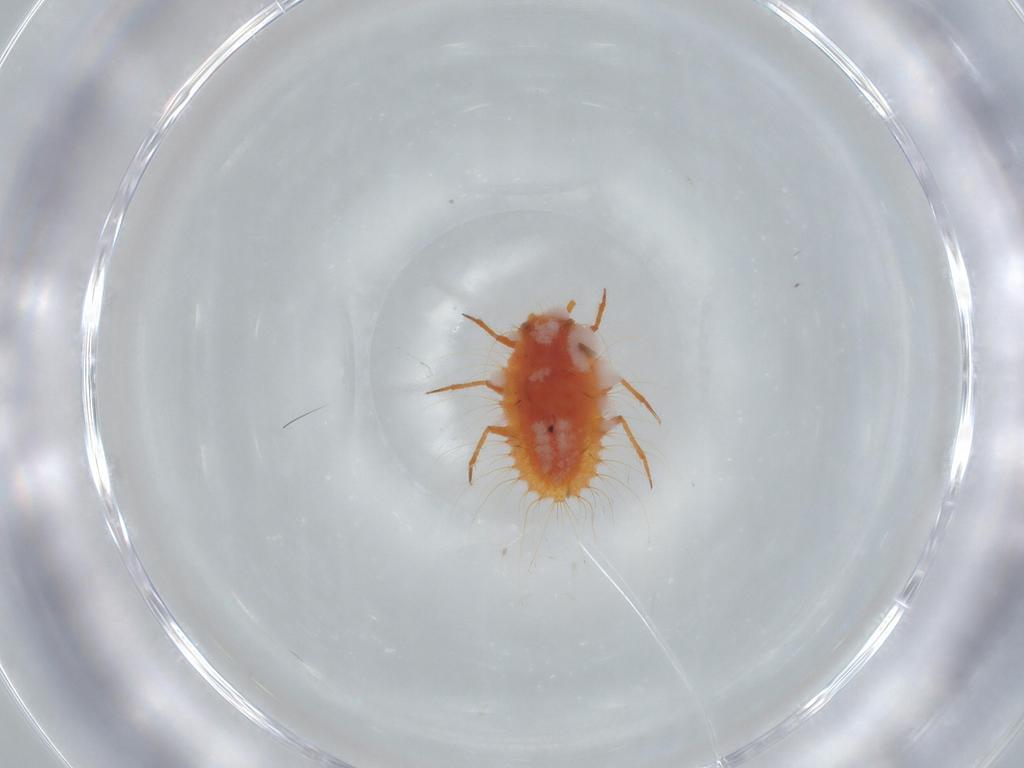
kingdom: Animalia
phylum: Arthropoda
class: Insecta
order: Hemiptera
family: Coccoidea_incertae_sedis
